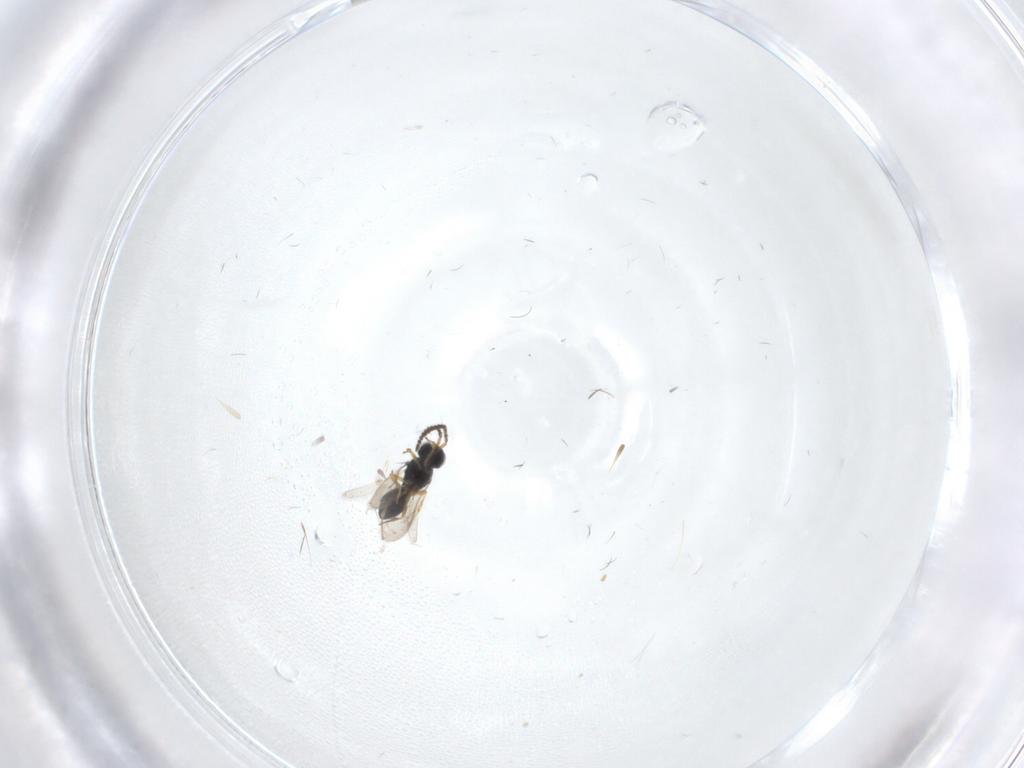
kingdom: Animalia
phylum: Arthropoda
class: Insecta
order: Hymenoptera
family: Scelionidae
